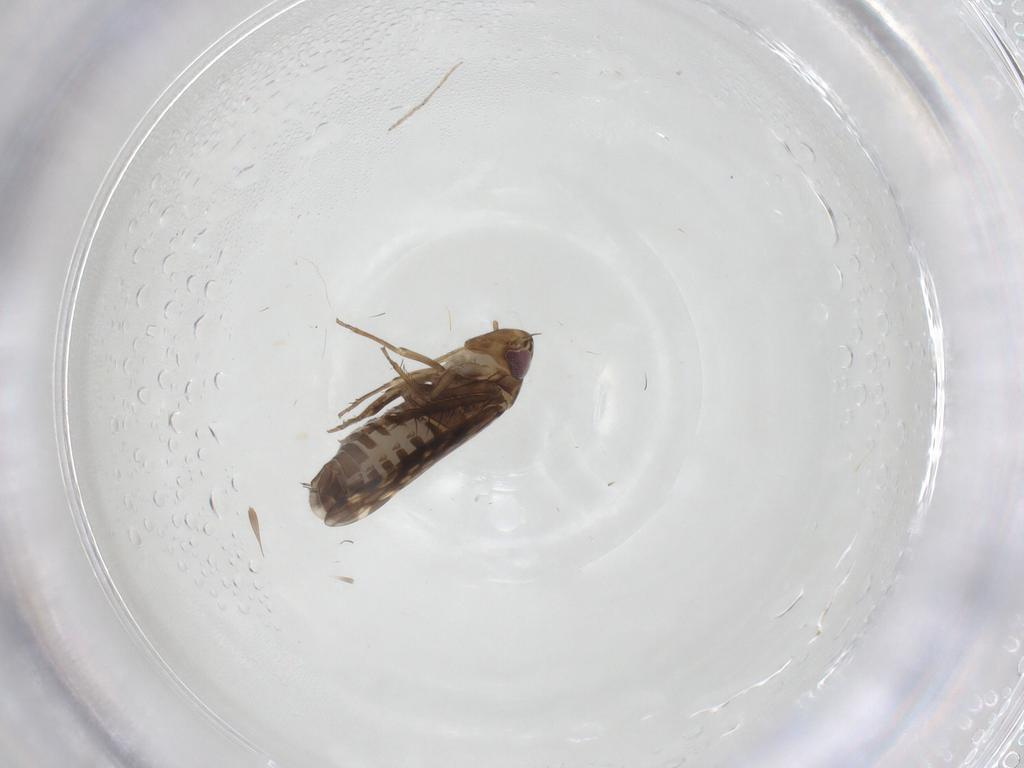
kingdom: Animalia
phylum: Arthropoda
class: Insecta
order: Hemiptera
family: Cicadellidae
